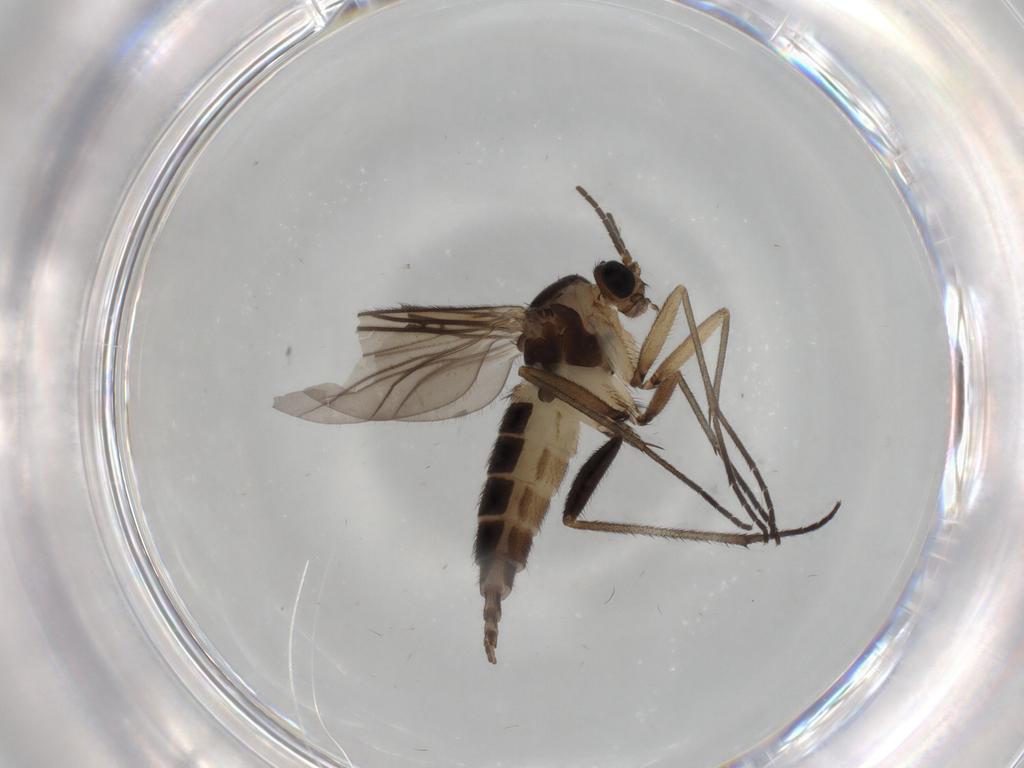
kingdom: Animalia
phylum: Arthropoda
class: Insecta
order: Diptera
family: Sciaridae
